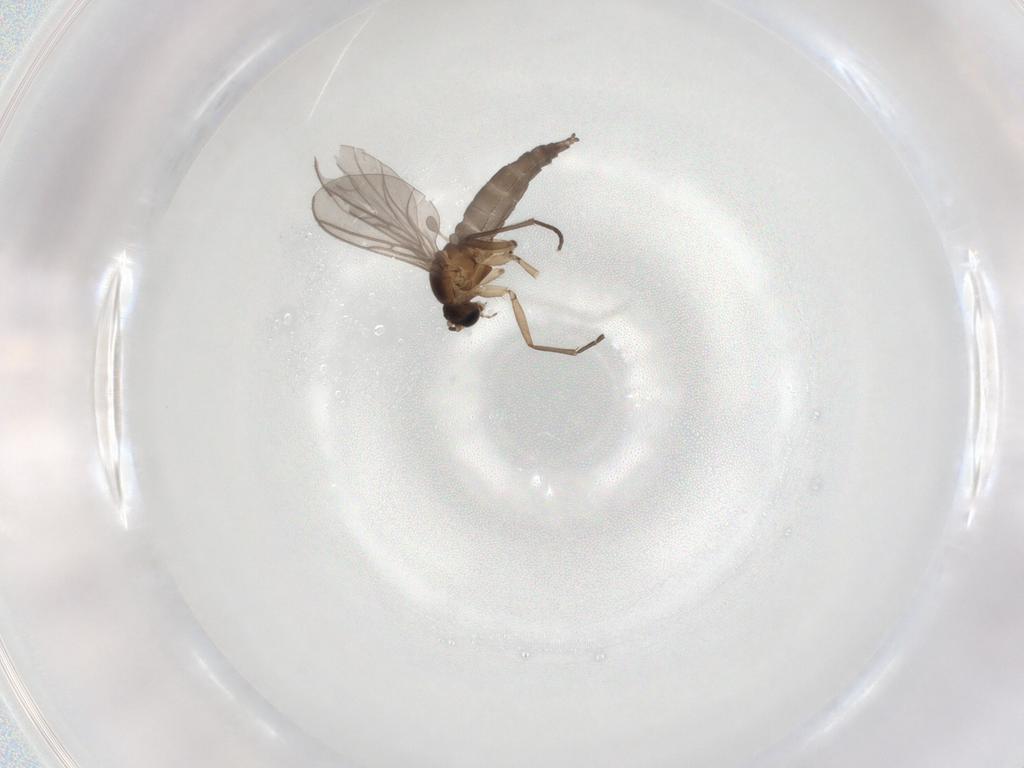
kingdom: Animalia
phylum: Arthropoda
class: Insecta
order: Diptera
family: Sciaridae
